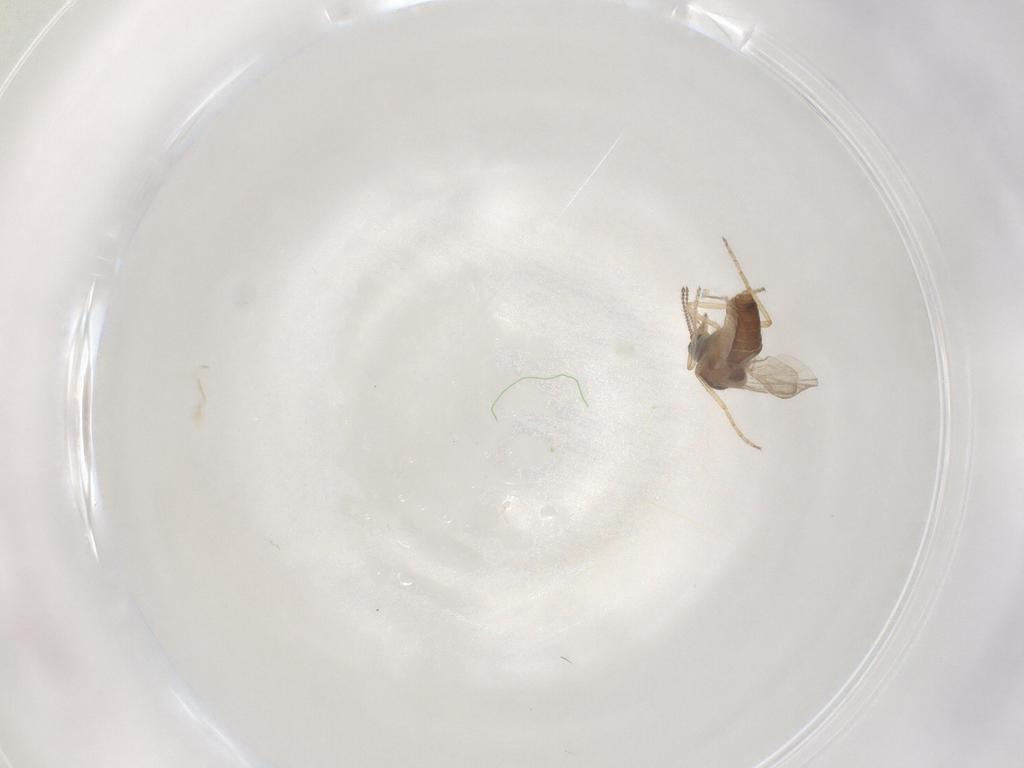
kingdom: Animalia
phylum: Arthropoda
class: Insecta
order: Diptera
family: Ceratopogonidae
